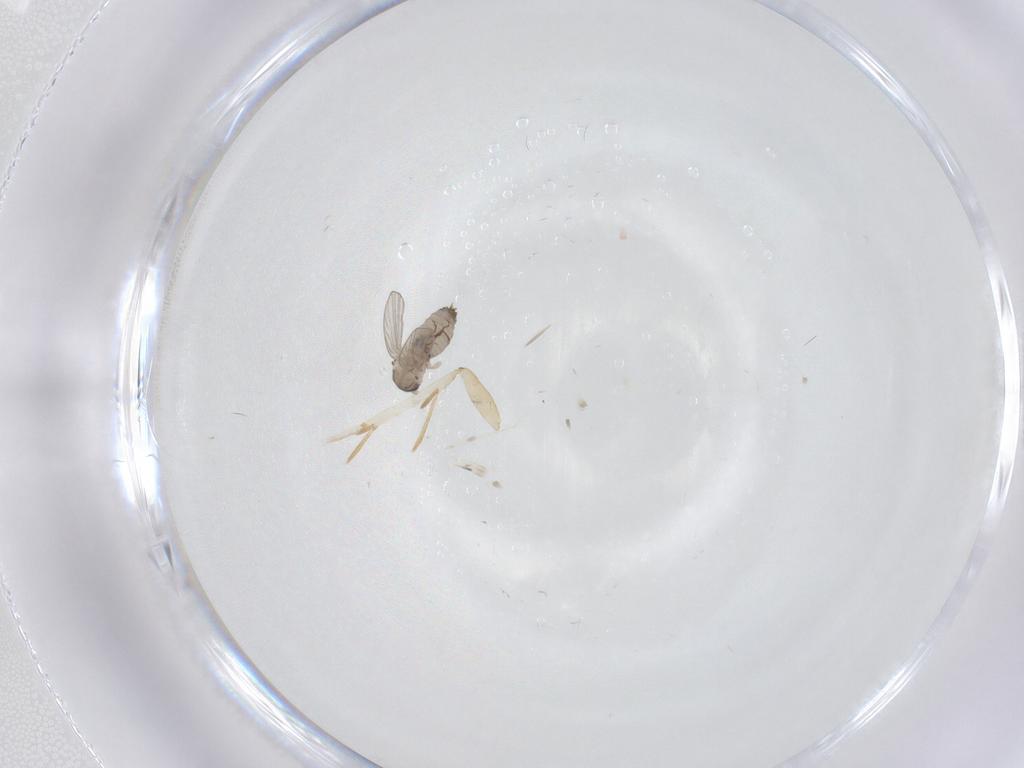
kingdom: Animalia
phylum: Arthropoda
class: Insecta
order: Diptera
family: Psychodidae
